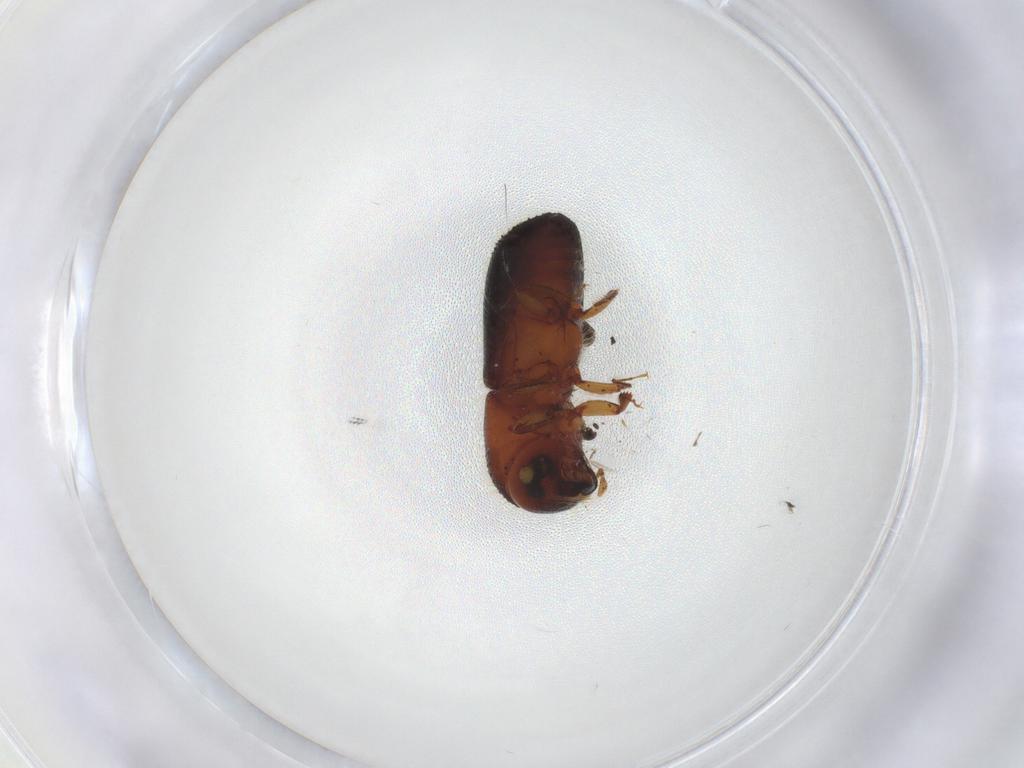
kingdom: Animalia
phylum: Arthropoda
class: Insecta
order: Coleoptera
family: Curculionidae
